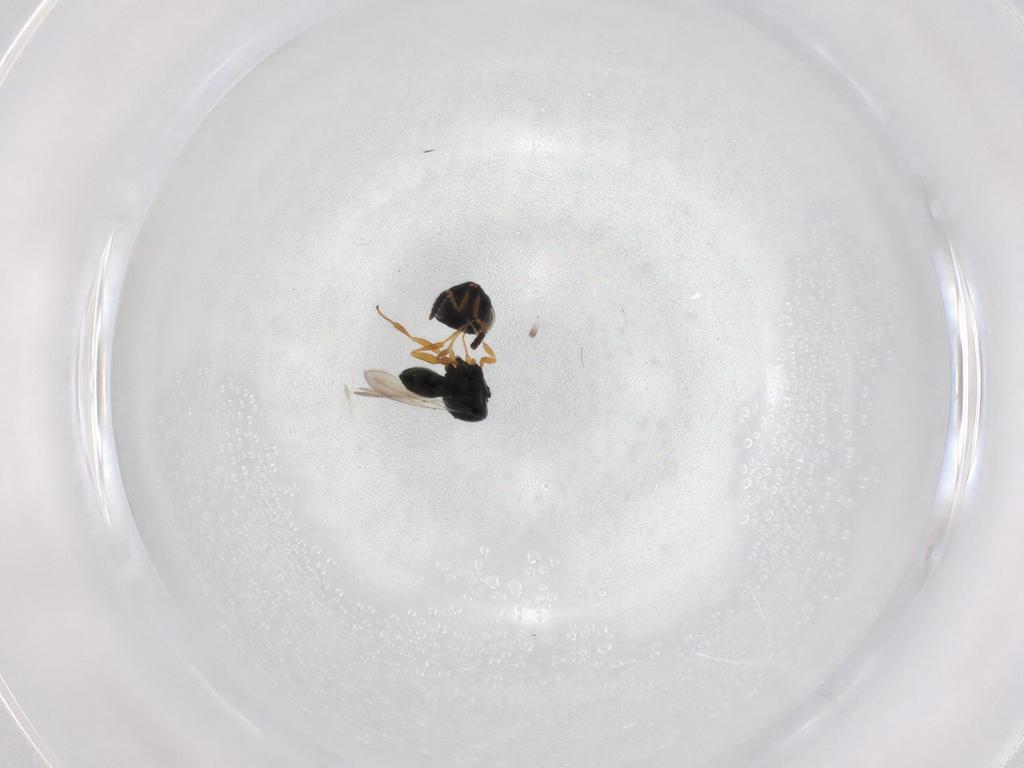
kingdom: Animalia
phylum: Arthropoda
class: Insecta
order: Hymenoptera
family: Scelionidae
